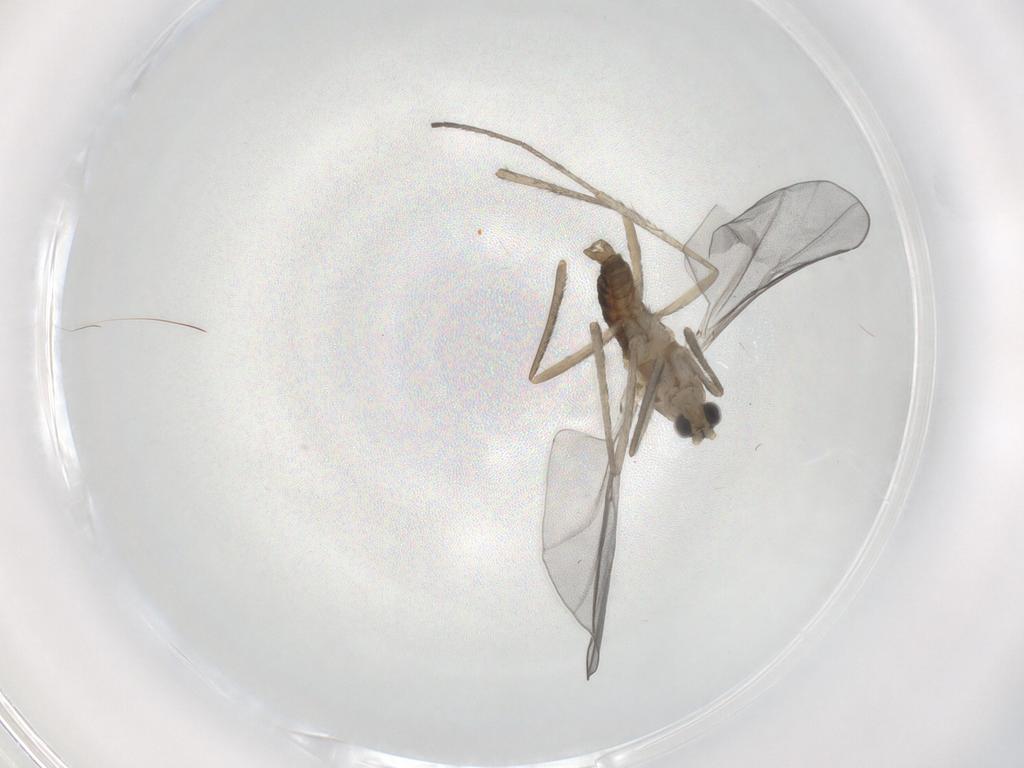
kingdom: Animalia
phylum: Arthropoda
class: Insecta
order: Diptera
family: Cecidomyiidae
